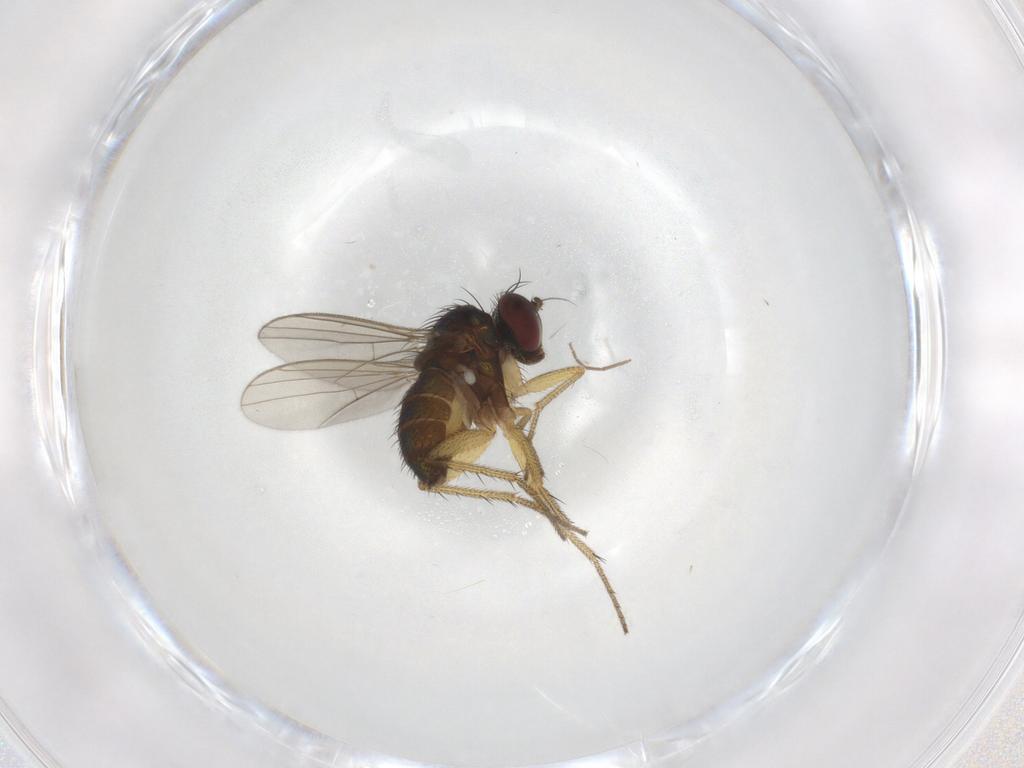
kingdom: Animalia
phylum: Arthropoda
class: Insecta
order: Diptera
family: Dolichopodidae
